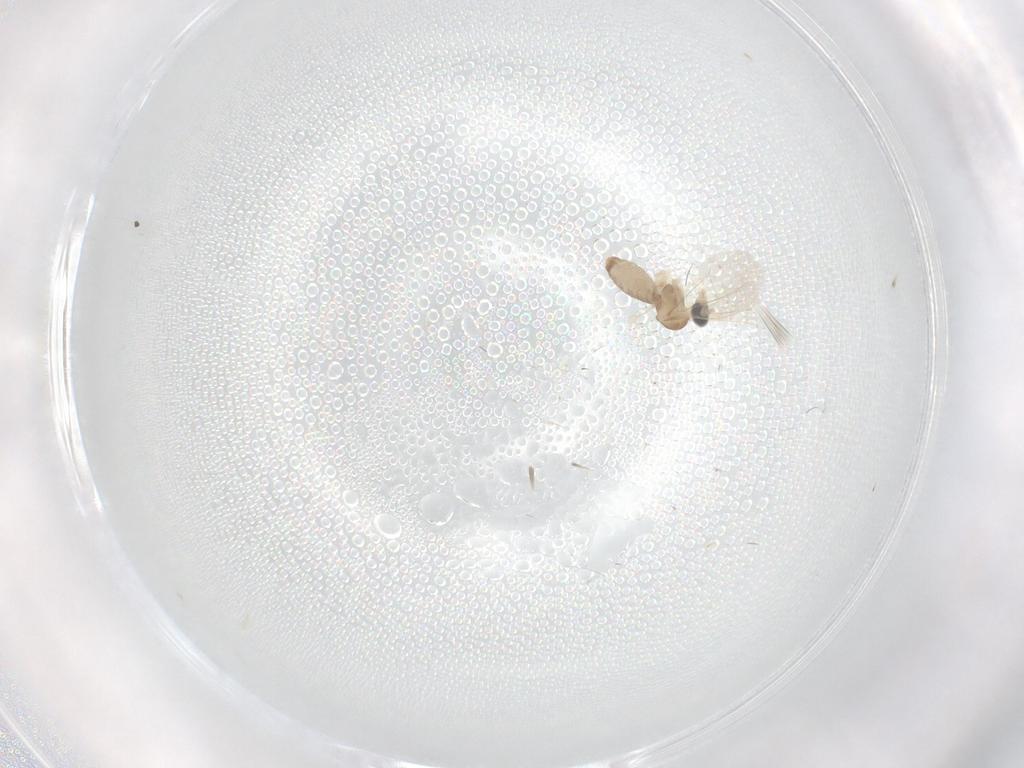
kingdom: Animalia
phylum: Arthropoda
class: Insecta
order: Diptera
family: Cecidomyiidae
